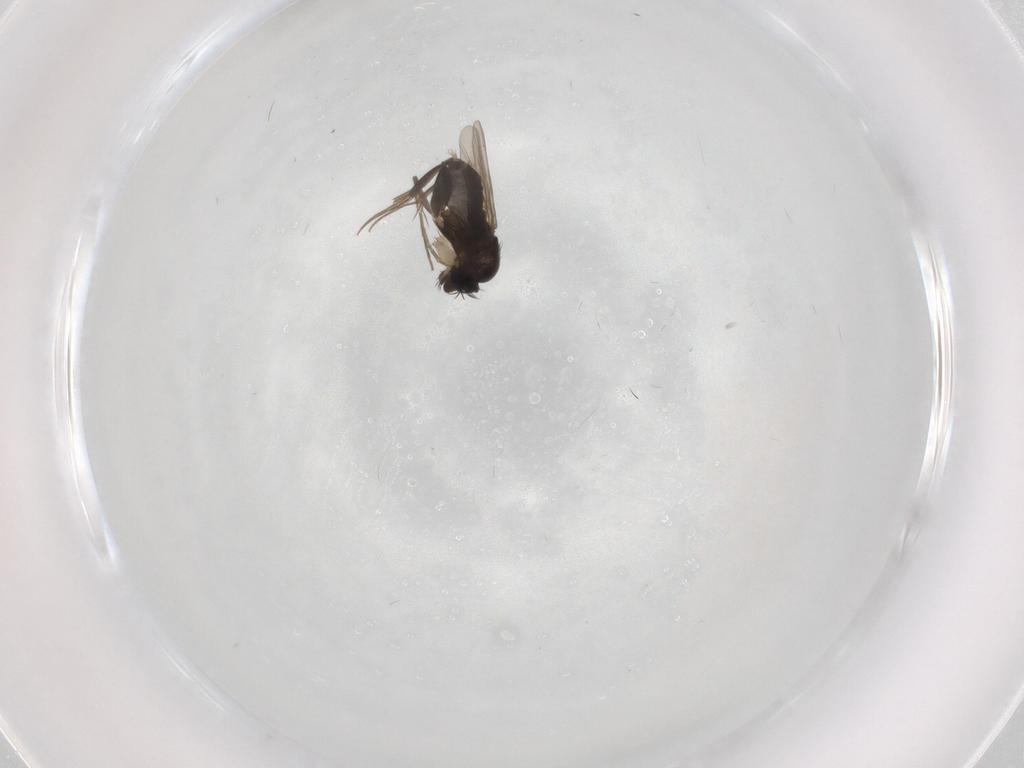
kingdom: Animalia
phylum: Arthropoda
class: Insecta
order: Diptera
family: Phoridae
